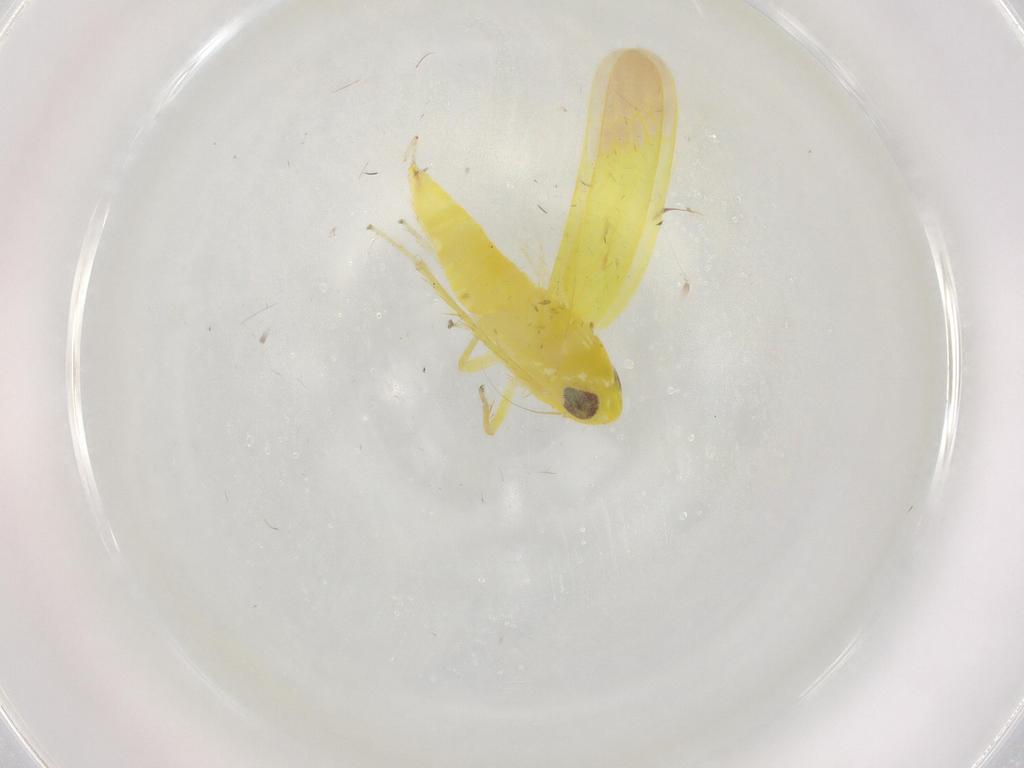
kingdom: Animalia
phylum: Arthropoda
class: Insecta
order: Hemiptera
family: Cicadellidae
